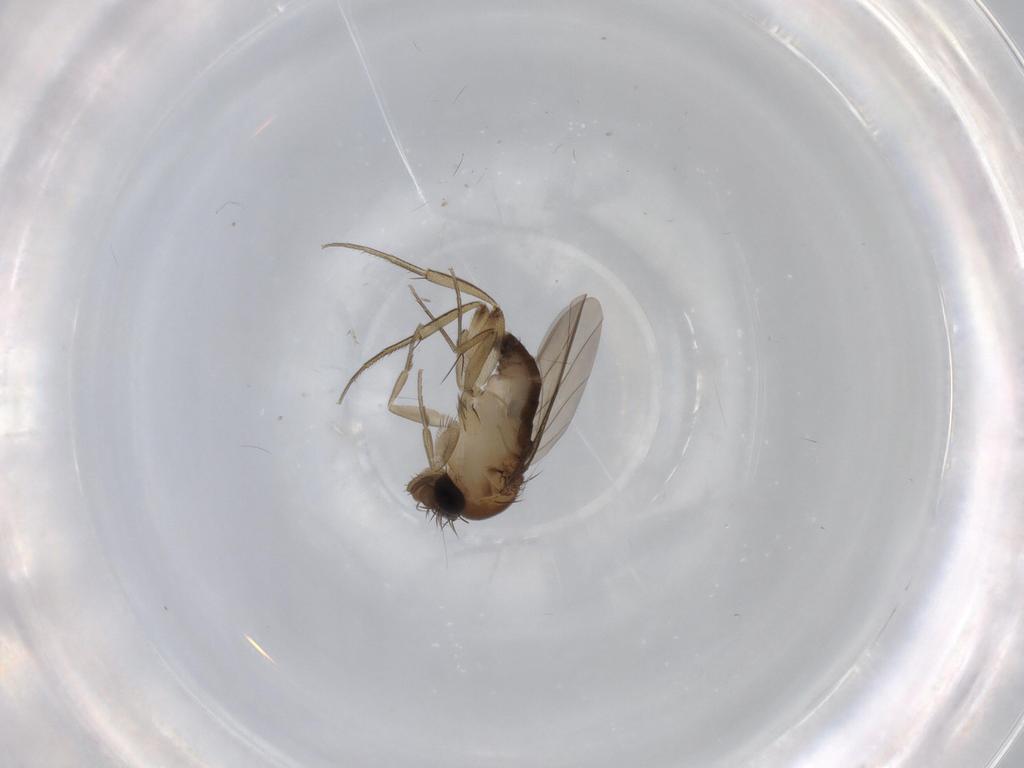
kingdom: Animalia
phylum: Arthropoda
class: Insecta
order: Diptera
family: Phoridae
